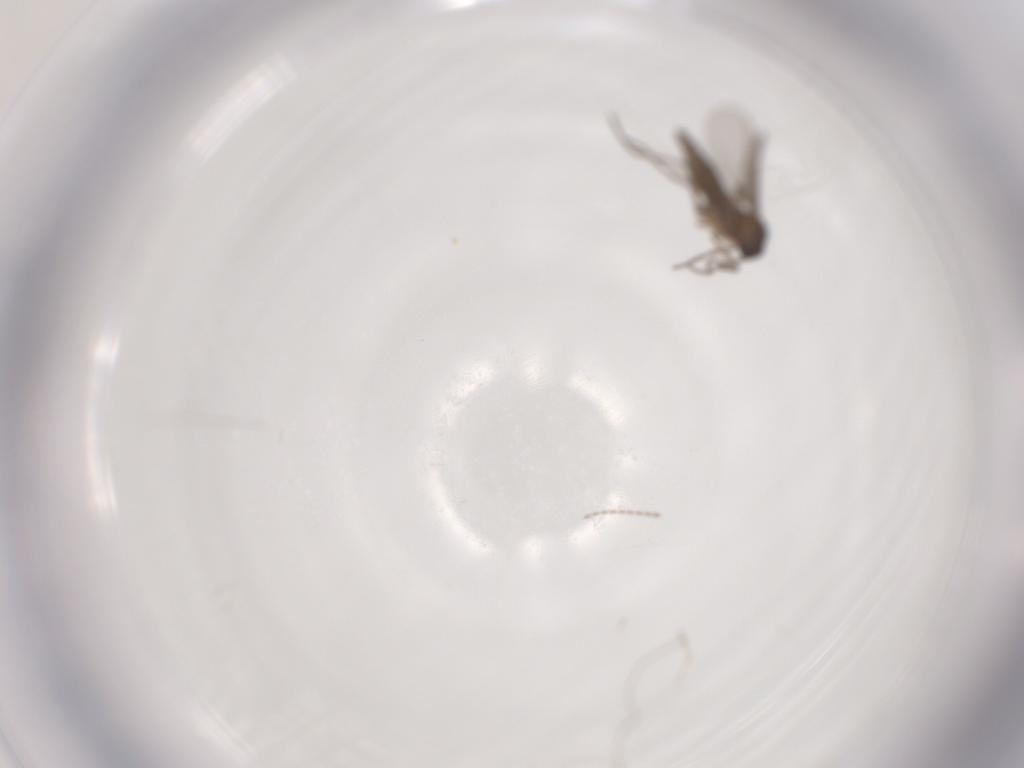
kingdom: Animalia
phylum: Arthropoda
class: Insecta
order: Diptera
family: Cecidomyiidae
